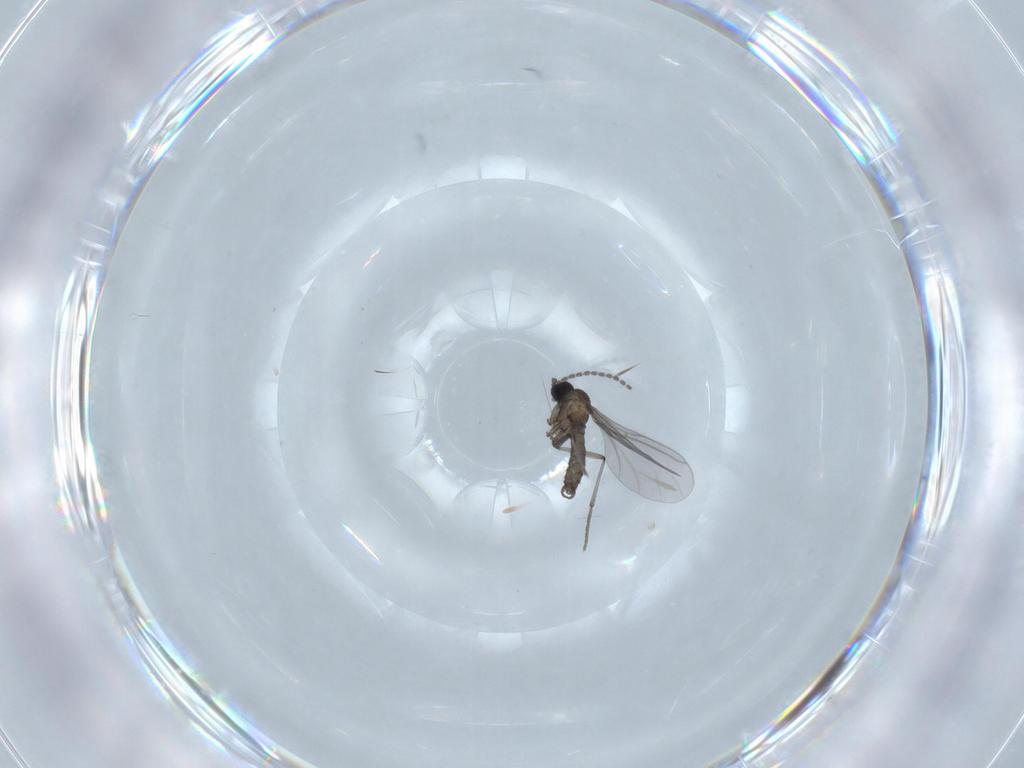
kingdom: Animalia
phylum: Arthropoda
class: Insecta
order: Diptera
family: Sciaridae
